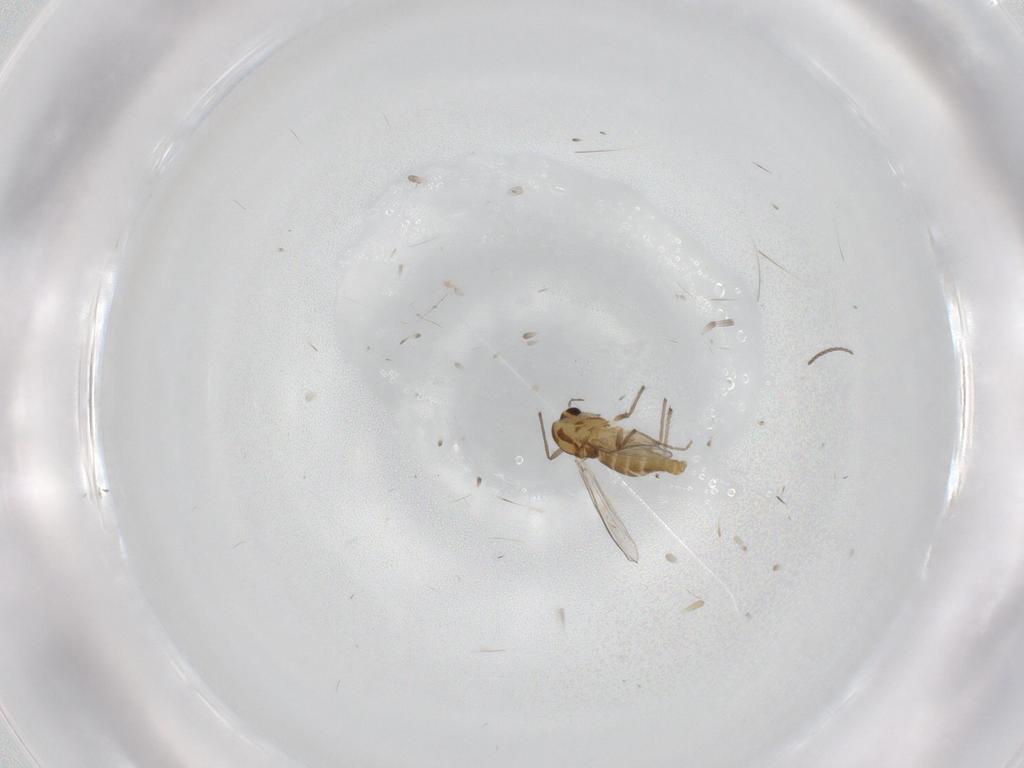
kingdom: Animalia
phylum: Arthropoda
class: Insecta
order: Diptera
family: Chironomidae
